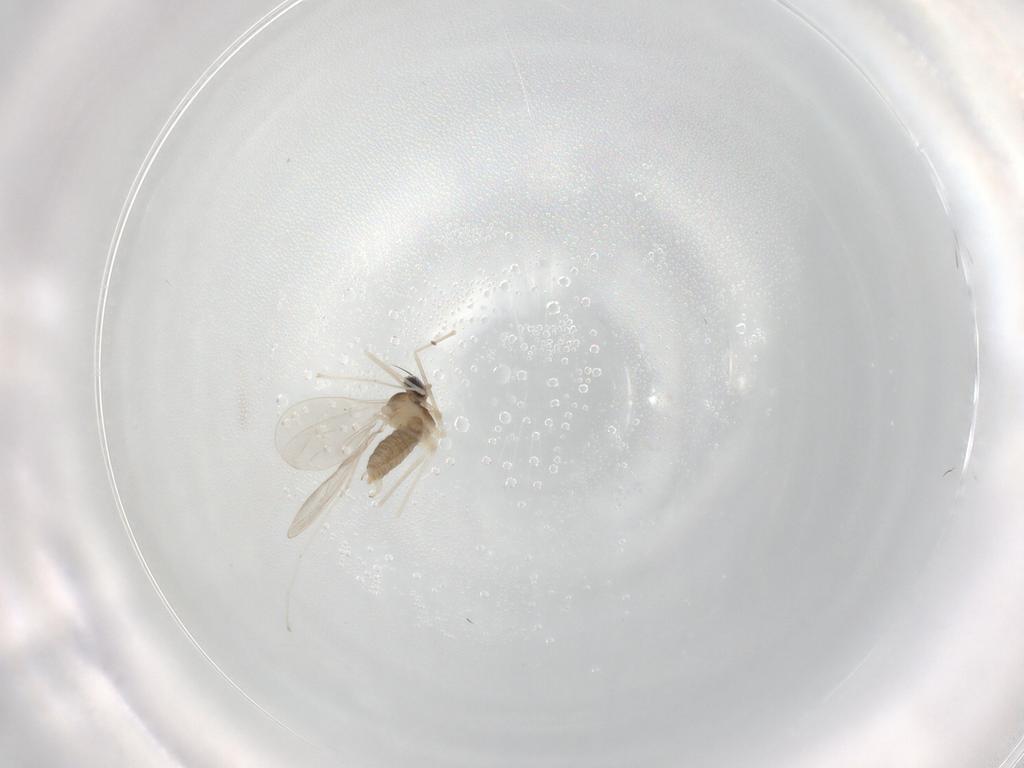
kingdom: Animalia
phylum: Arthropoda
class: Insecta
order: Diptera
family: Cecidomyiidae
